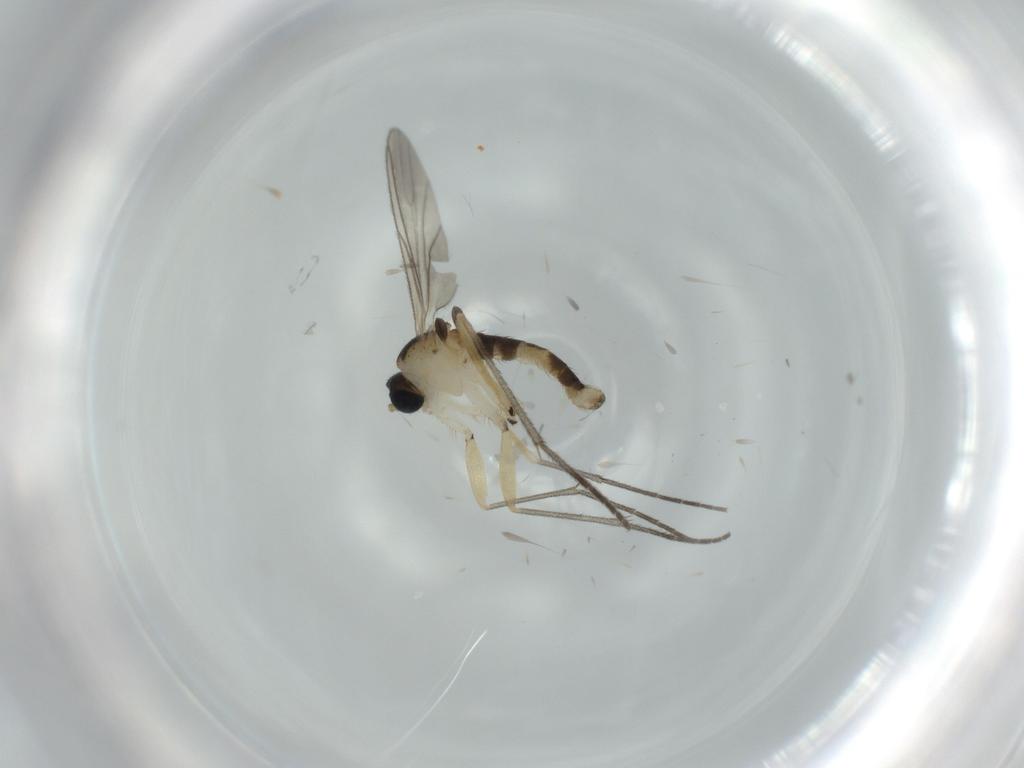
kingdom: Animalia
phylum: Arthropoda
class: Insecta
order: Diptera
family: Sciaridae
